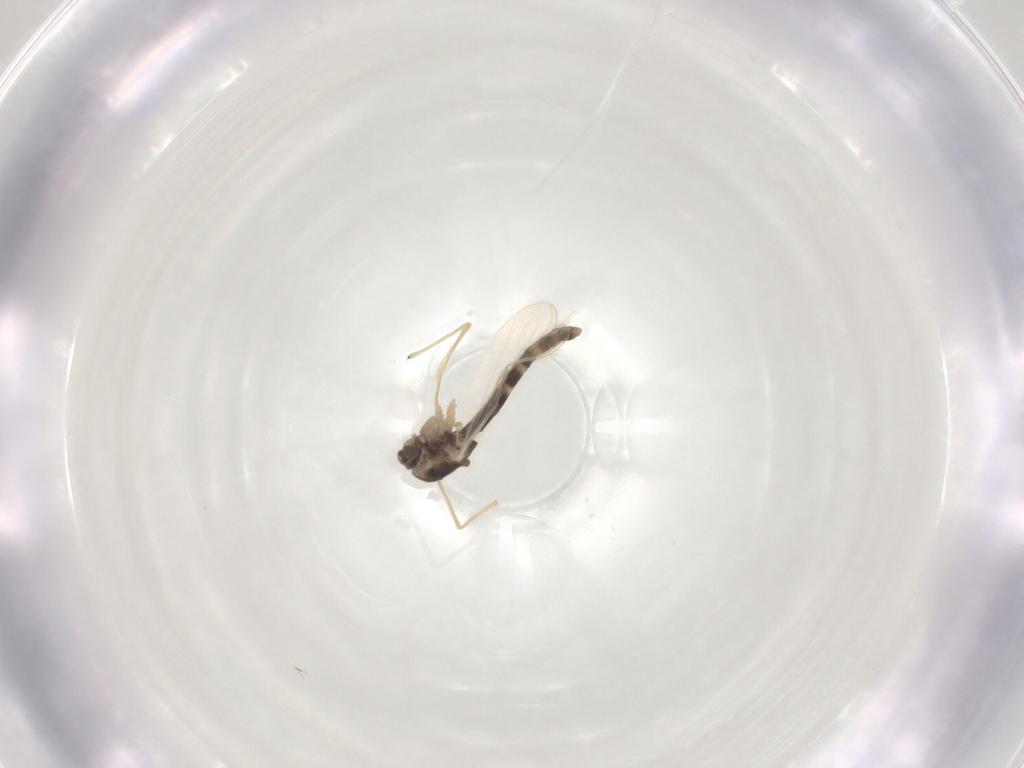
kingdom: Animalia
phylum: Arthropoda
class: Insecta
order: Diptera
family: Chironomidae
